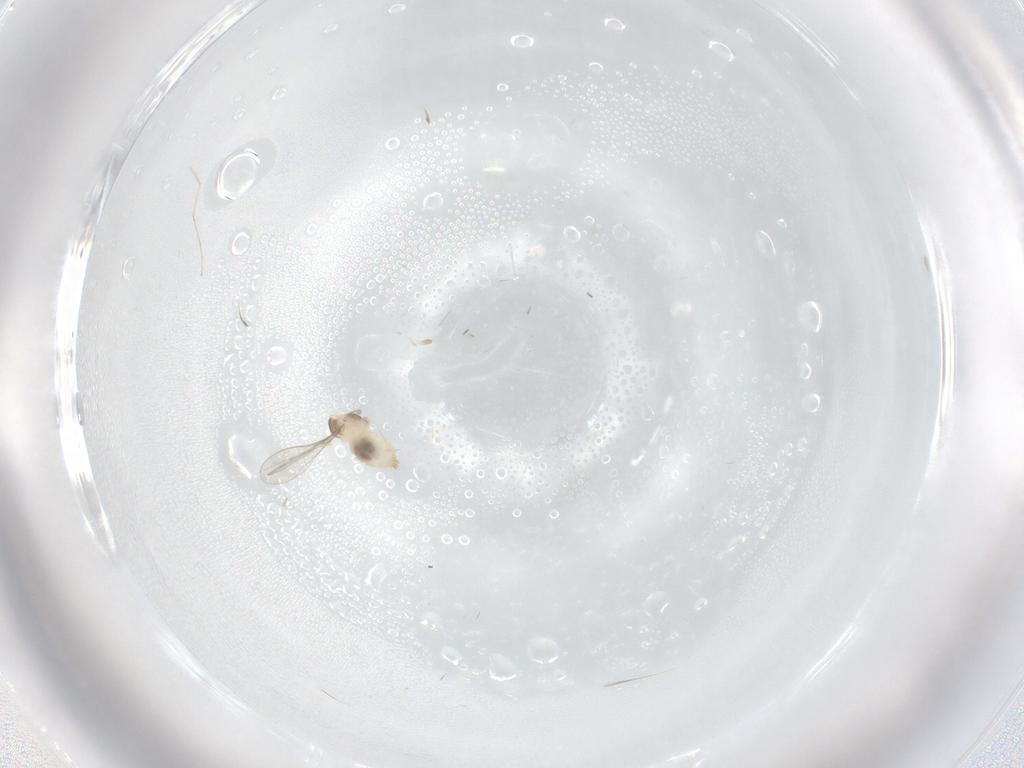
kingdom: Animalia
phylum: Arthropoda
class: Insecta
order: Diptera
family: Cecidomyiidae
